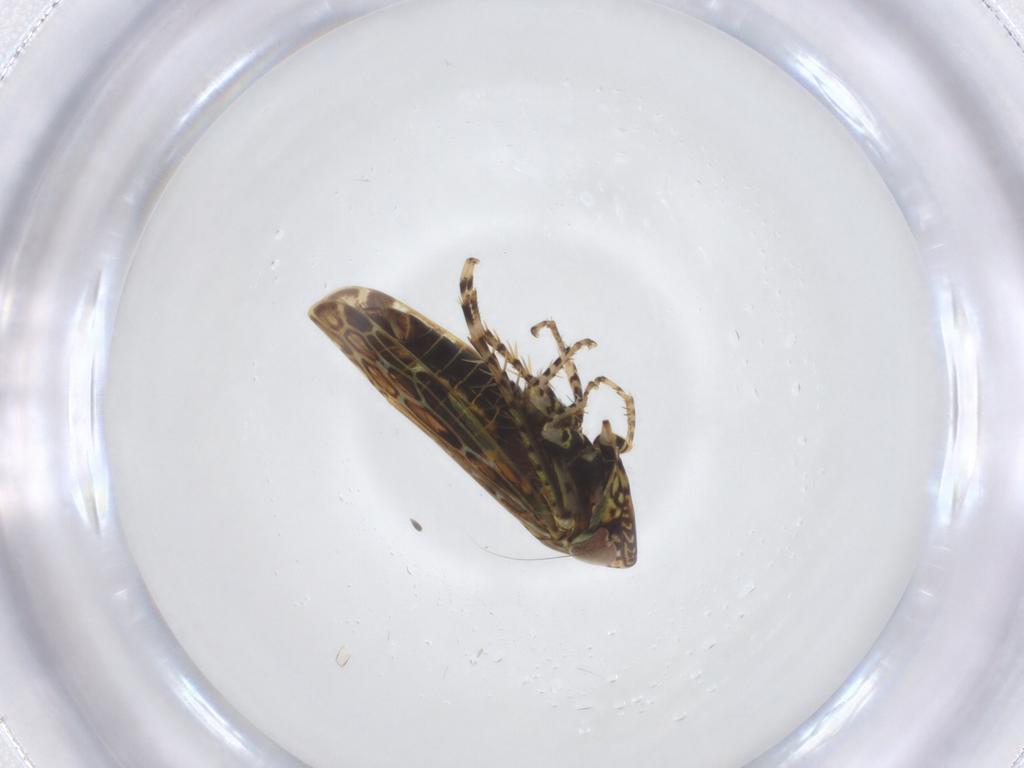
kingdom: Animalia
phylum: Arthropoda
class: Insecta
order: Hemiptera
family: Cicadellidae
